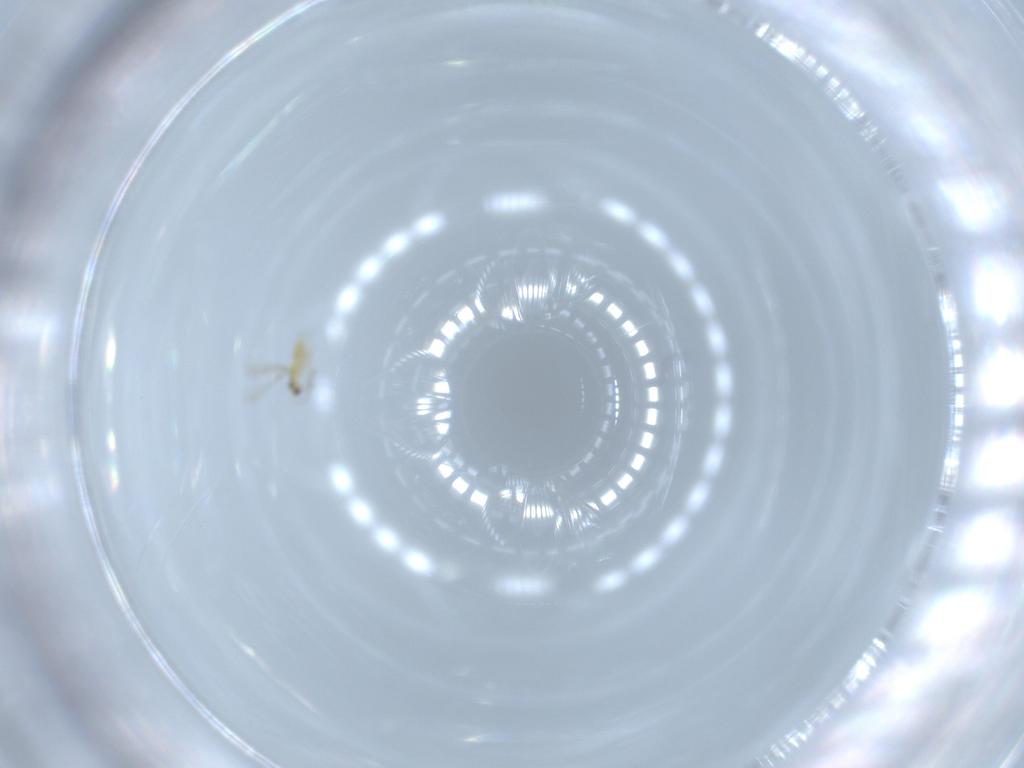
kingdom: Animalia
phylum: Arthropoda
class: Insecta
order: Hymenoptera
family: Mymaridae
